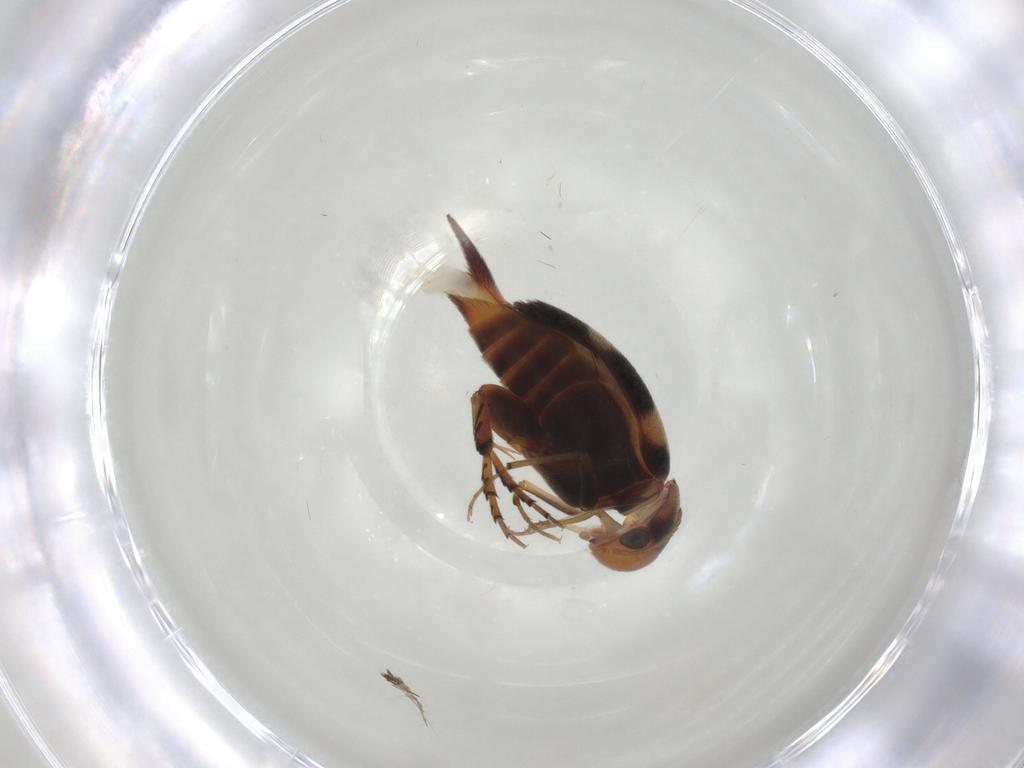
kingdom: Animalia
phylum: Arthropoda
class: Insecta
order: Coleoptera
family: Mordellidae
